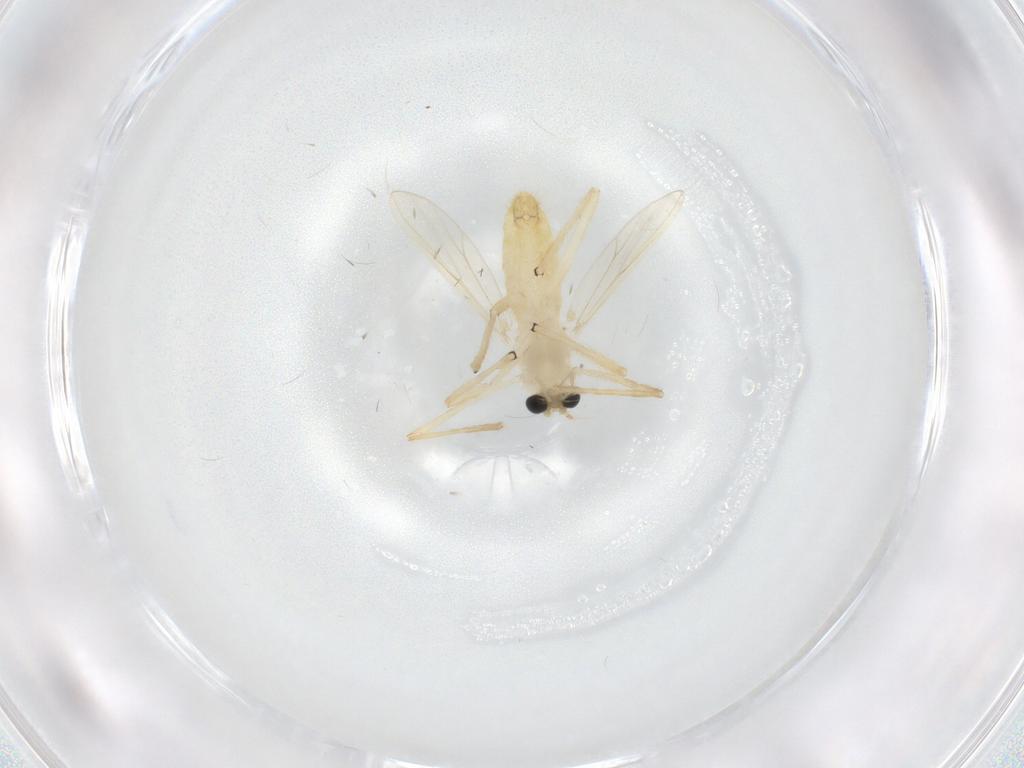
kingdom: Animalia
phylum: Arthropoda
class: Insecta
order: Diptera
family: Chironomidae
